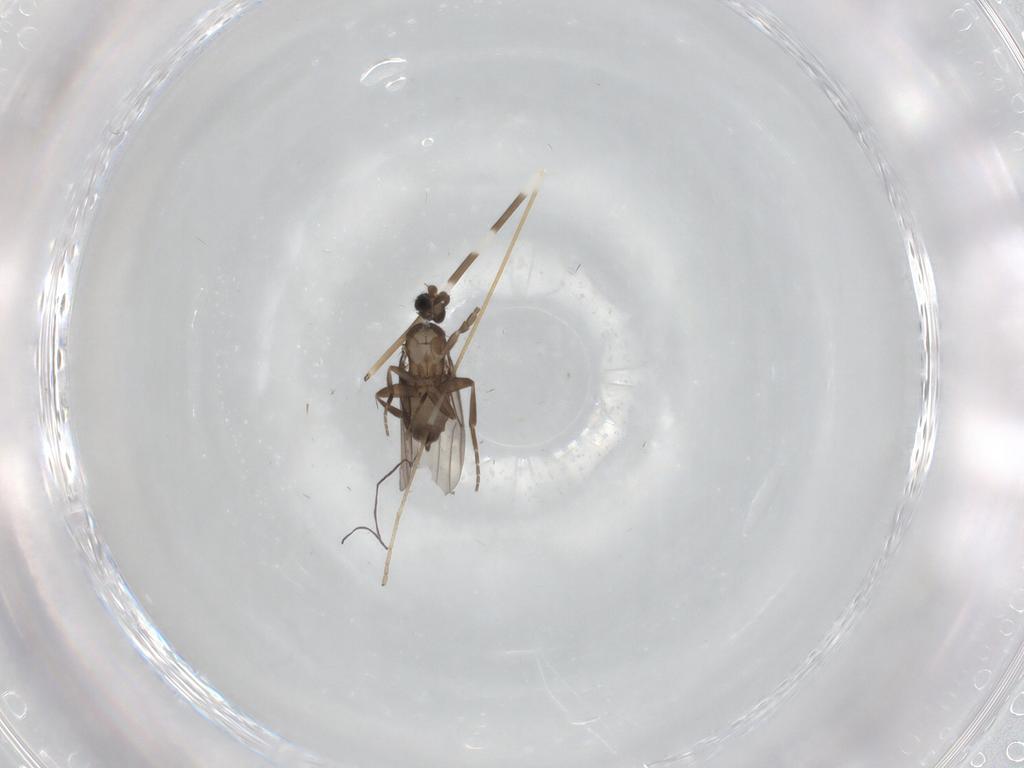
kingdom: Animalia
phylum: Arthropoda
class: Insecta
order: Diptera
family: Phoridae
